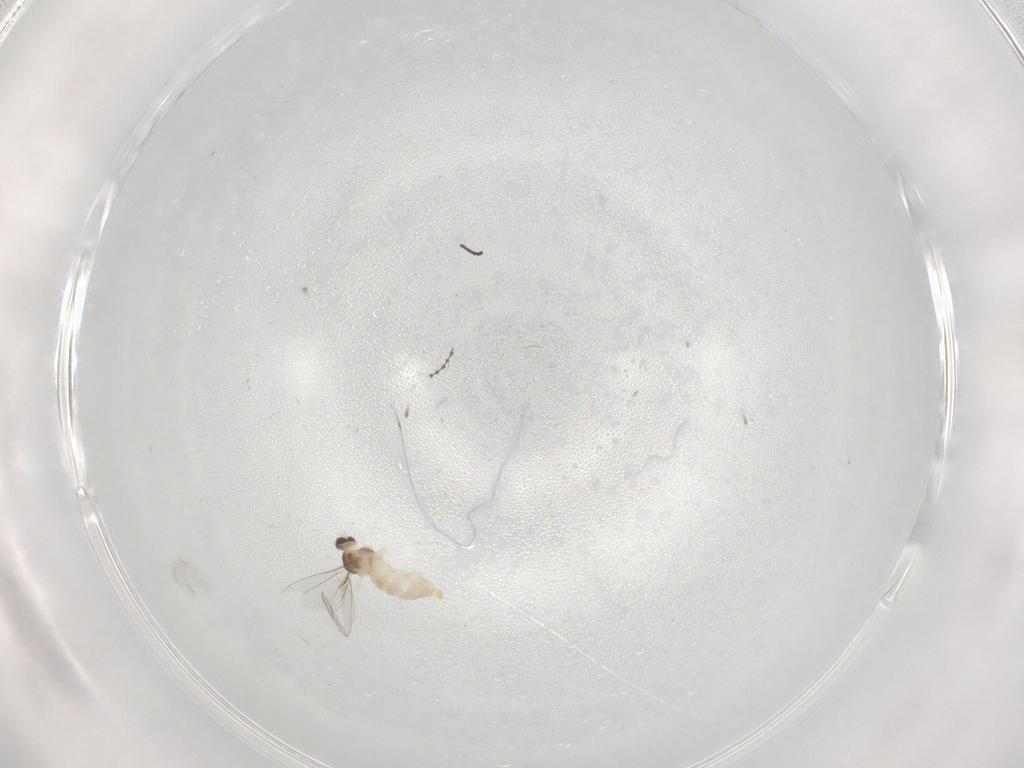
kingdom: Animalia
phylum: Arthropoda
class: Insecta
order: Diptera
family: Cecidomyiidae
